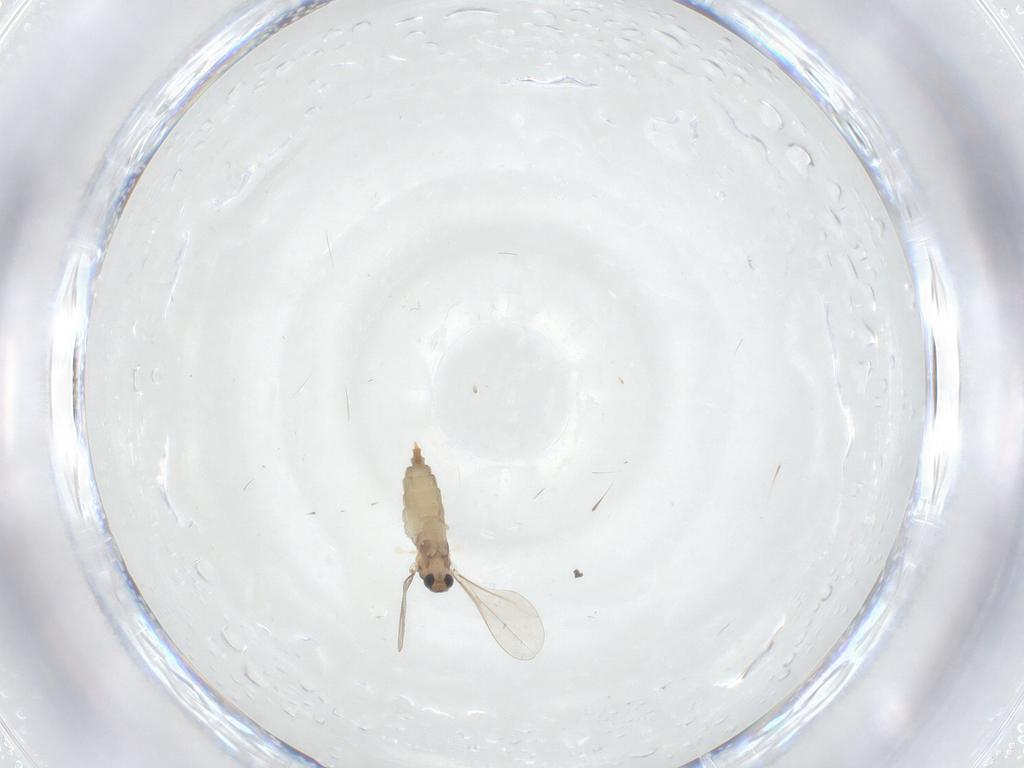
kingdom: Animalia
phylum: Arthropoda
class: Insecta
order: Diptera
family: Cecidomyiidae
